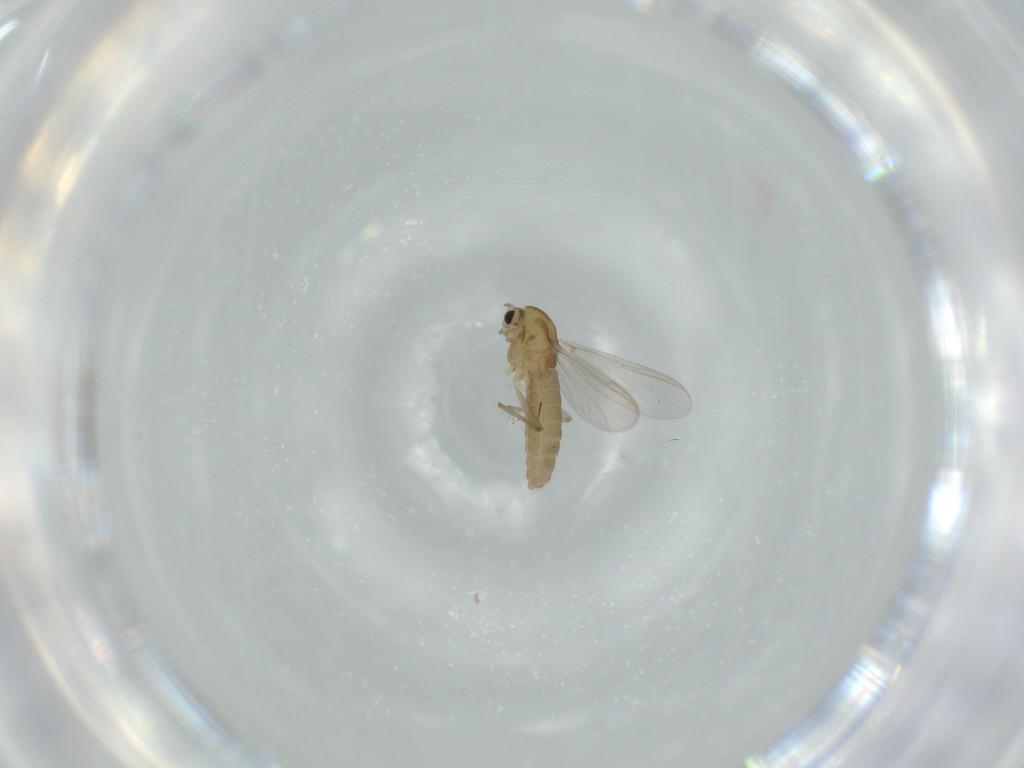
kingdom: Animalia
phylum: Arthropoda
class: Insecta
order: Diptera
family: Chironomidae
